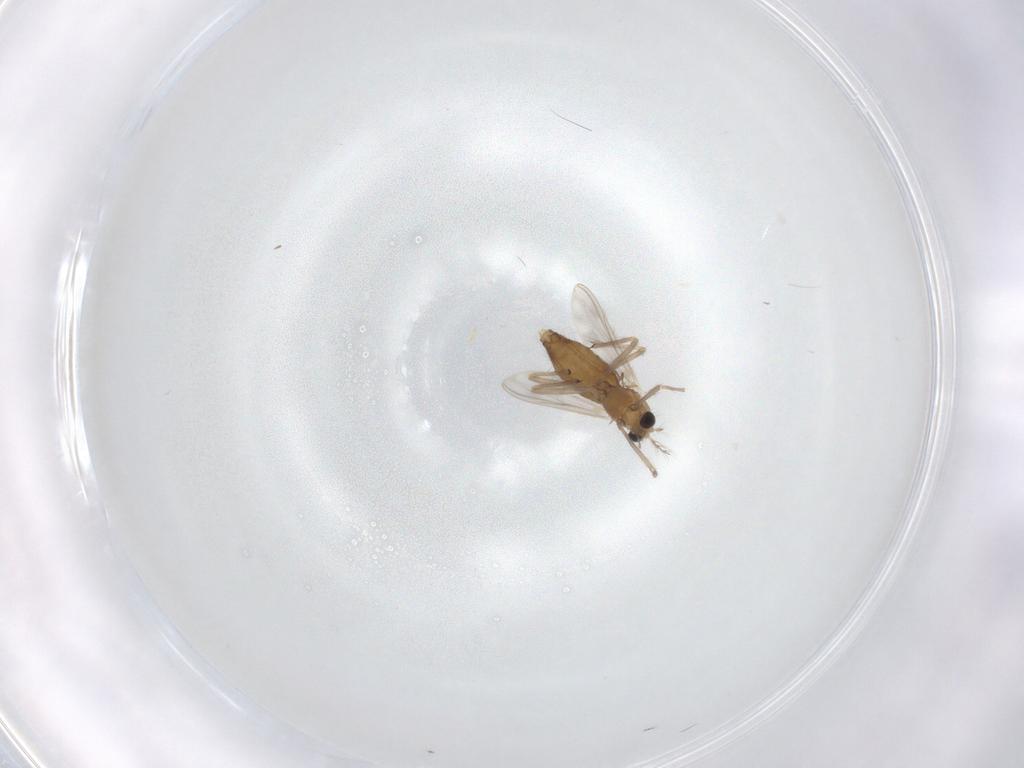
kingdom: Animalia
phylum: Arthropoda
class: Insecta
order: Diptera
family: Chironomidae
